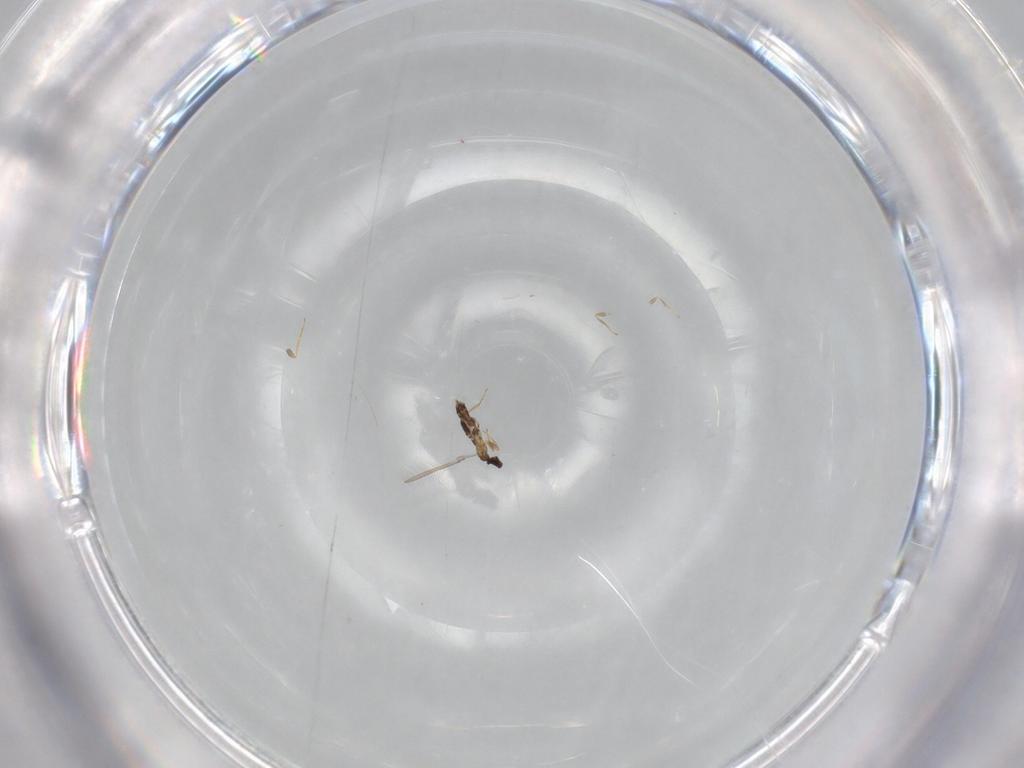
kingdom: Animalia
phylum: Arthropoda
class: Insecta
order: Hymenoptera
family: Mymaridae
